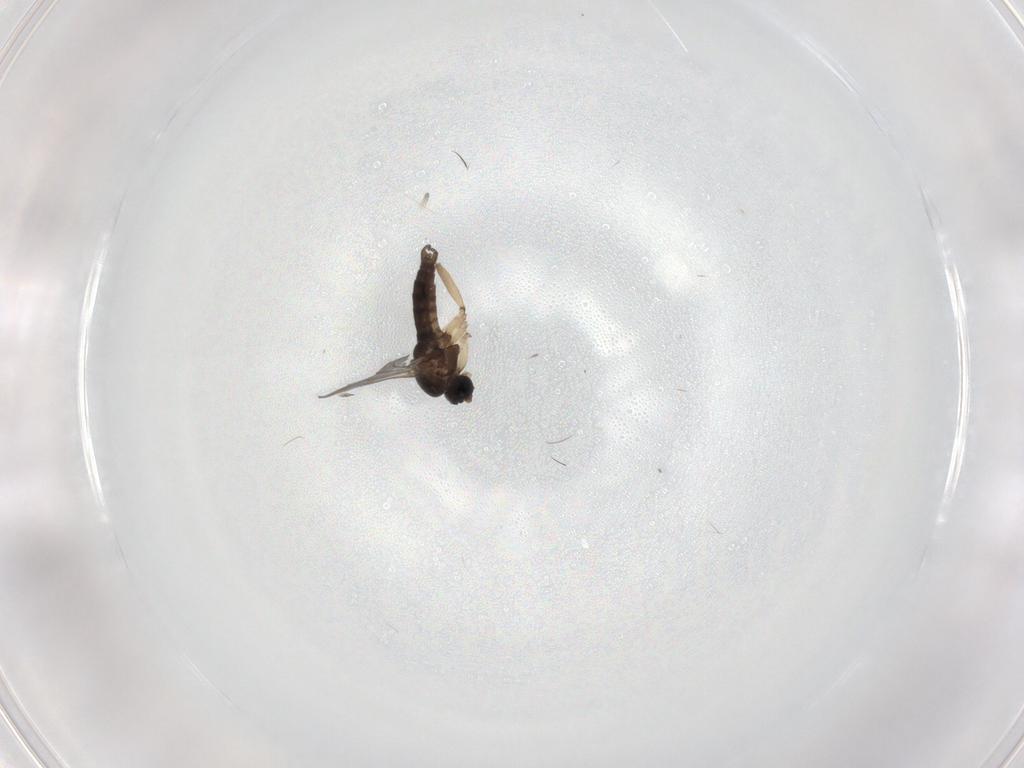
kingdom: Animalia
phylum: Arthropoda
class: Insecta
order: Diptera
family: Sciaridae
